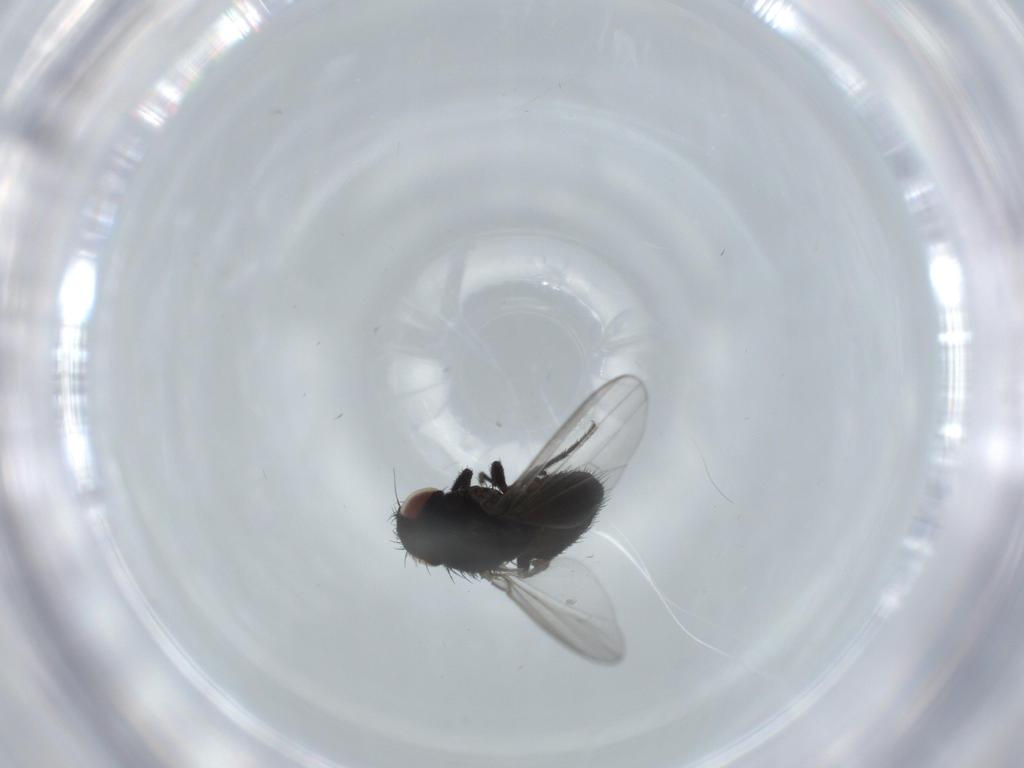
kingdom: Animalia
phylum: Arthropoda
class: Insecta
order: Diptera
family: Milichiidae
